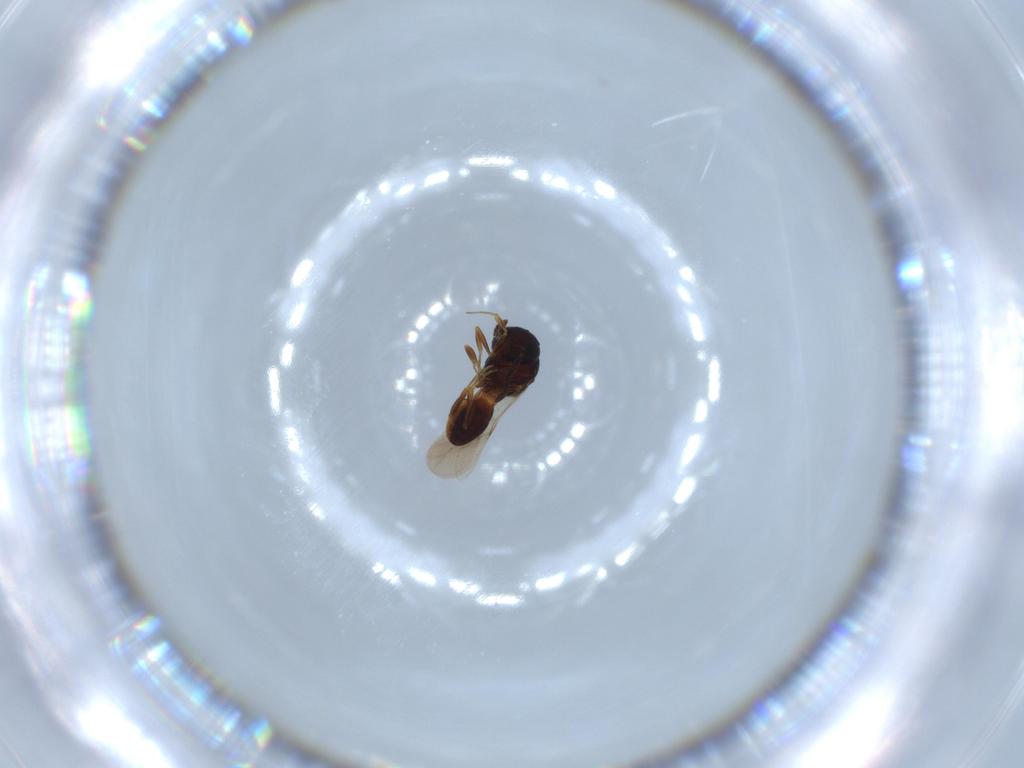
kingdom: Animalia
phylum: Arthropoda
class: Insecta
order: Hymenoptera
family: Scelionidae
